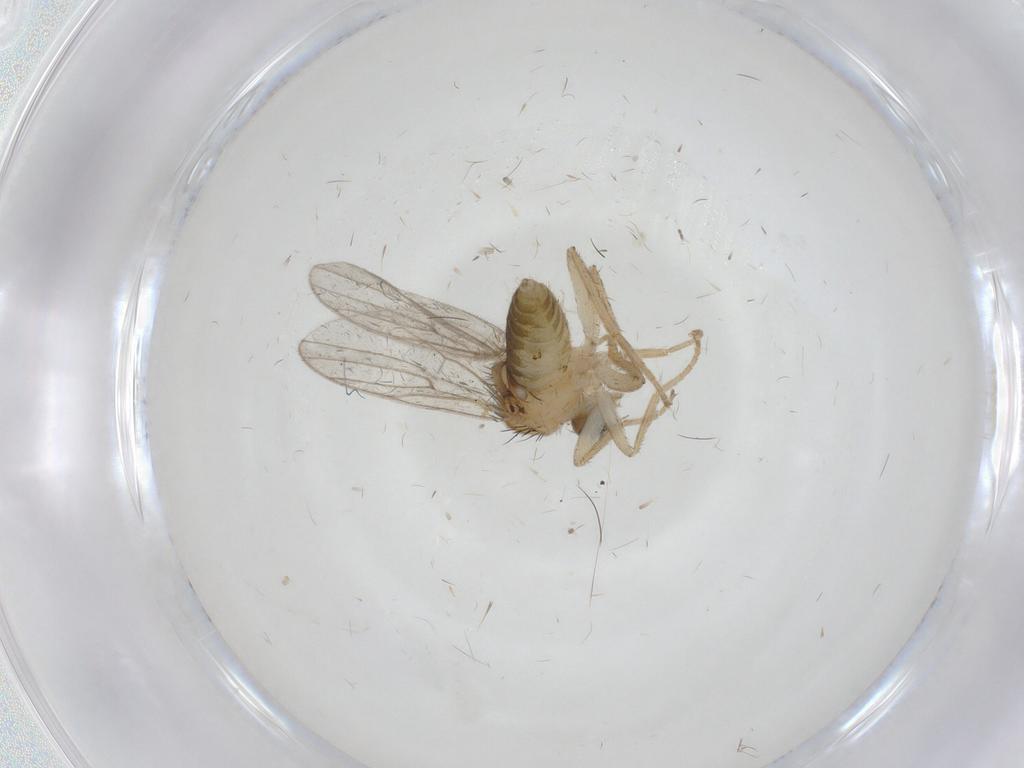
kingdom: Animalia
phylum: Arthropoda
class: Insecta
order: Diptera
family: Hybotidae
